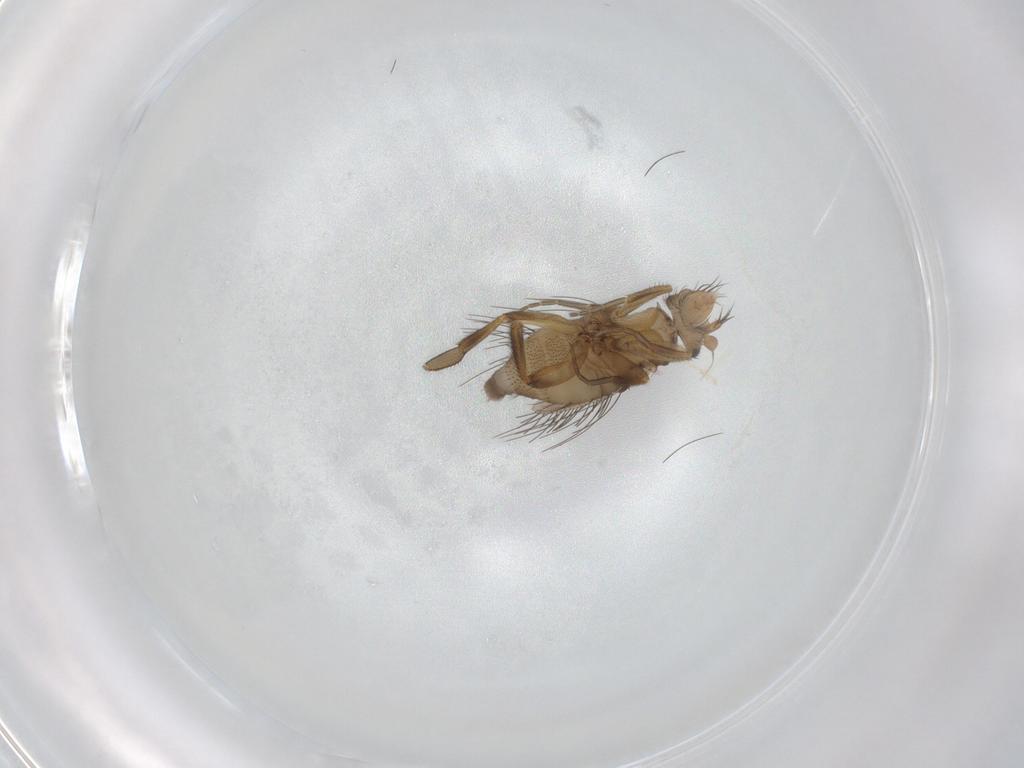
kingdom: Animalia
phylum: Arthropoda
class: Insecta
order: Diptera
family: Phoridae
